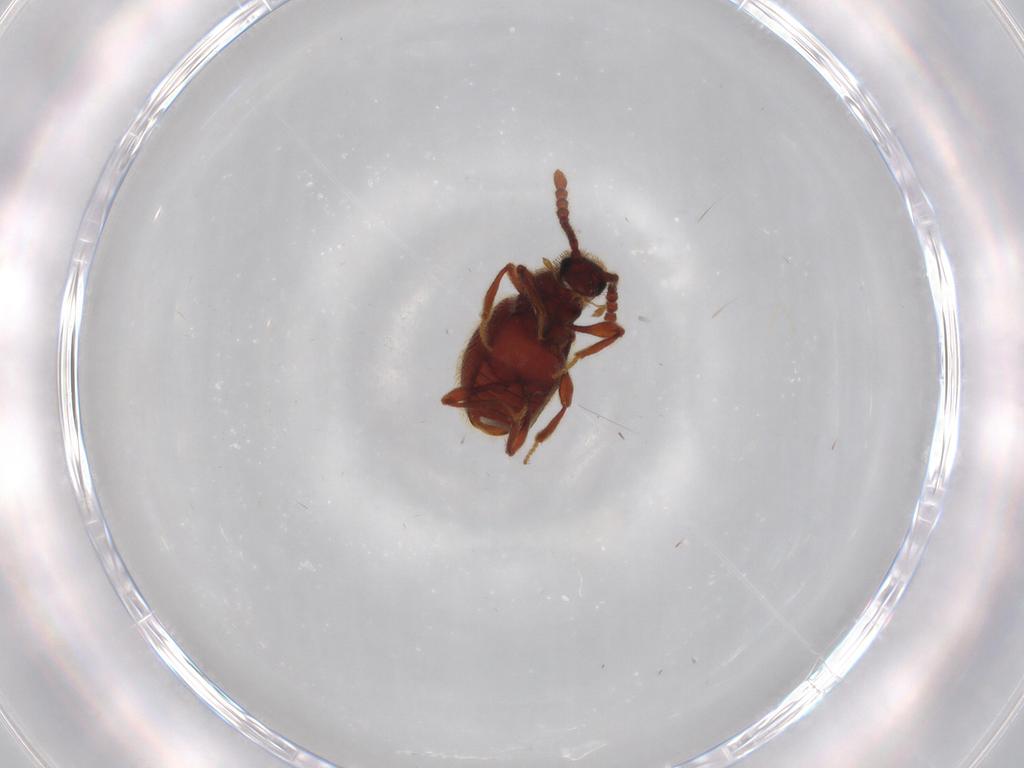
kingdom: Animalia
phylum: Arthropoda
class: Insecta
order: Coleoptera
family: Staphylinidae
